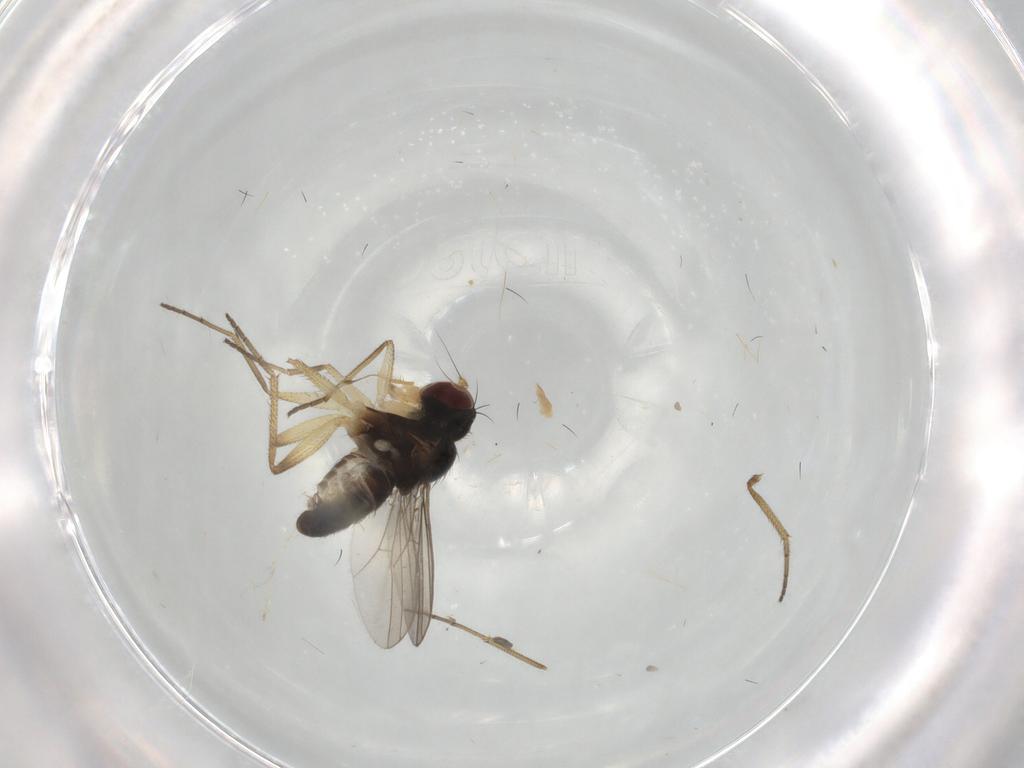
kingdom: Animalia
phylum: Arthropoda
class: Insecta
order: Diptera
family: Dolichopodidae
